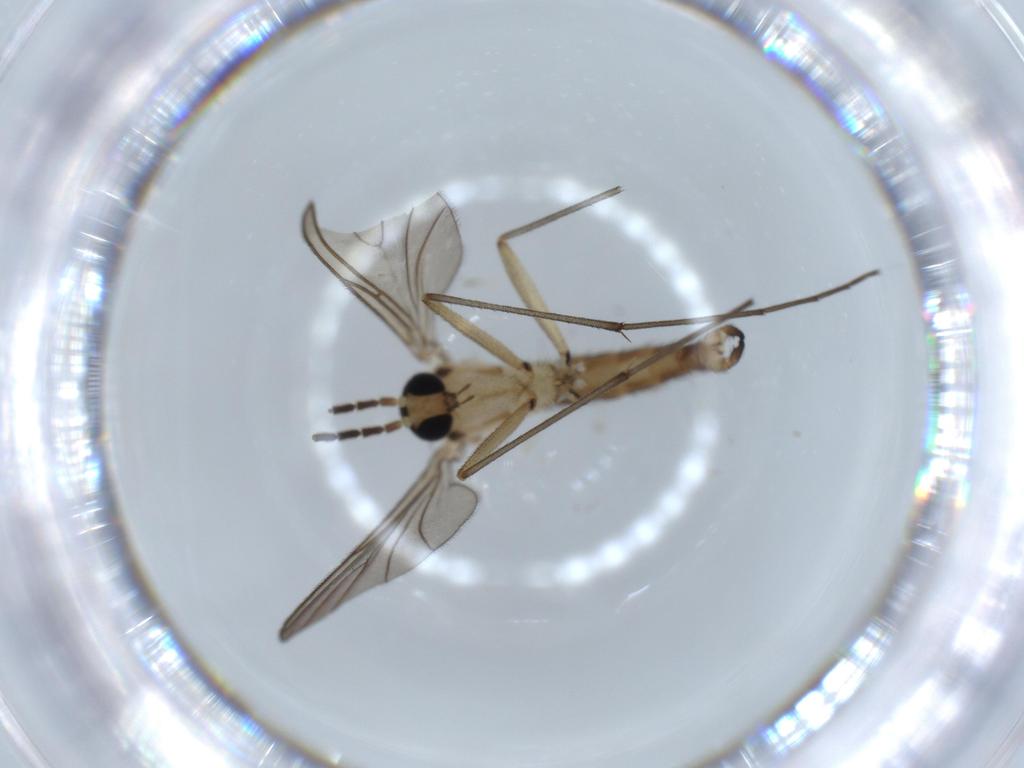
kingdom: Animalia
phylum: Arthropoda
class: Insecta
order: Diptera
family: Sciaridae
